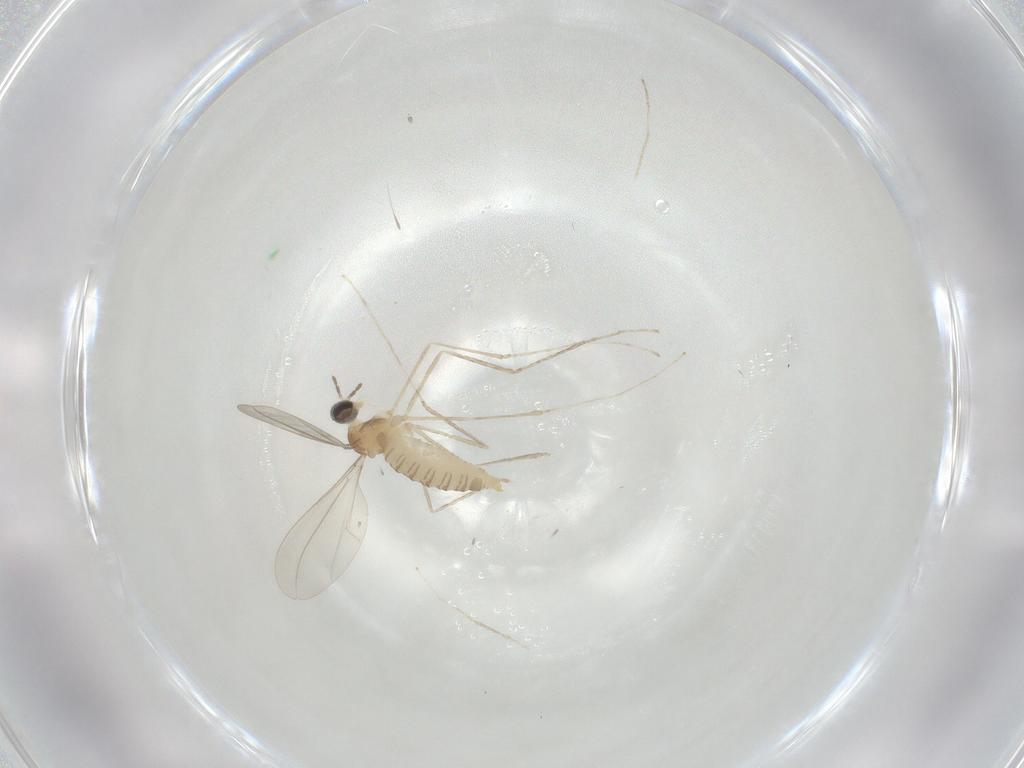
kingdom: Animalia
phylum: Arthropoda
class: Insecta
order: Diptera
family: Cecidomyiidae
